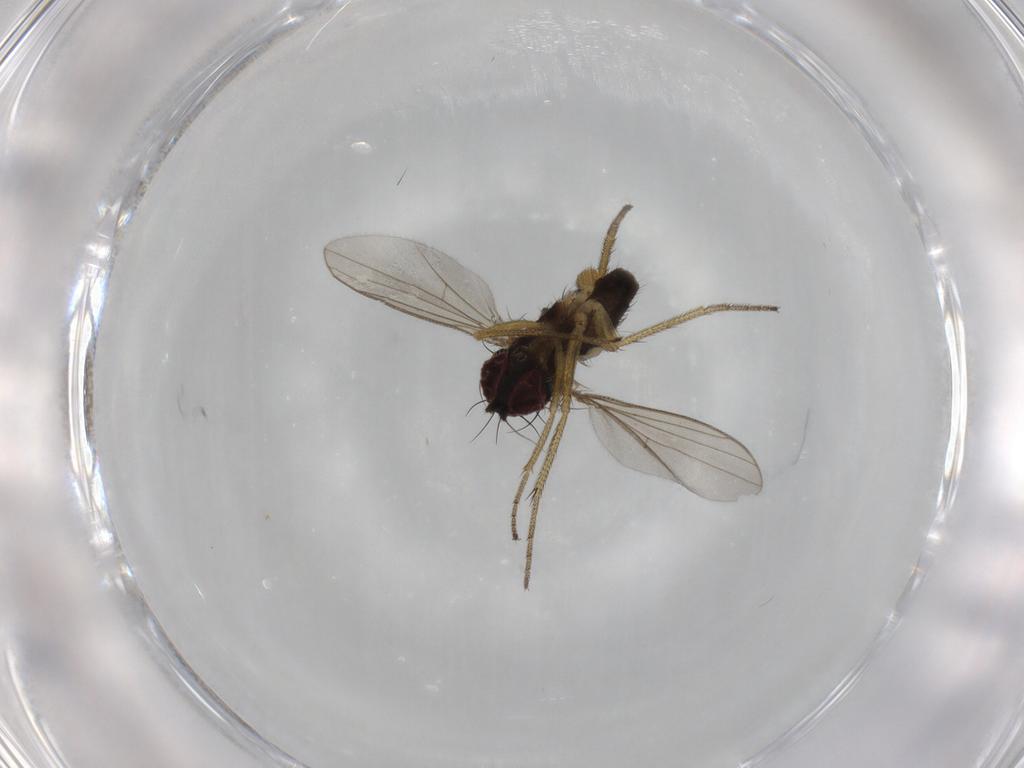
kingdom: Animalia
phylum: Arthropoda
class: Insecta
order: Diptera
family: Dolichopodidae
